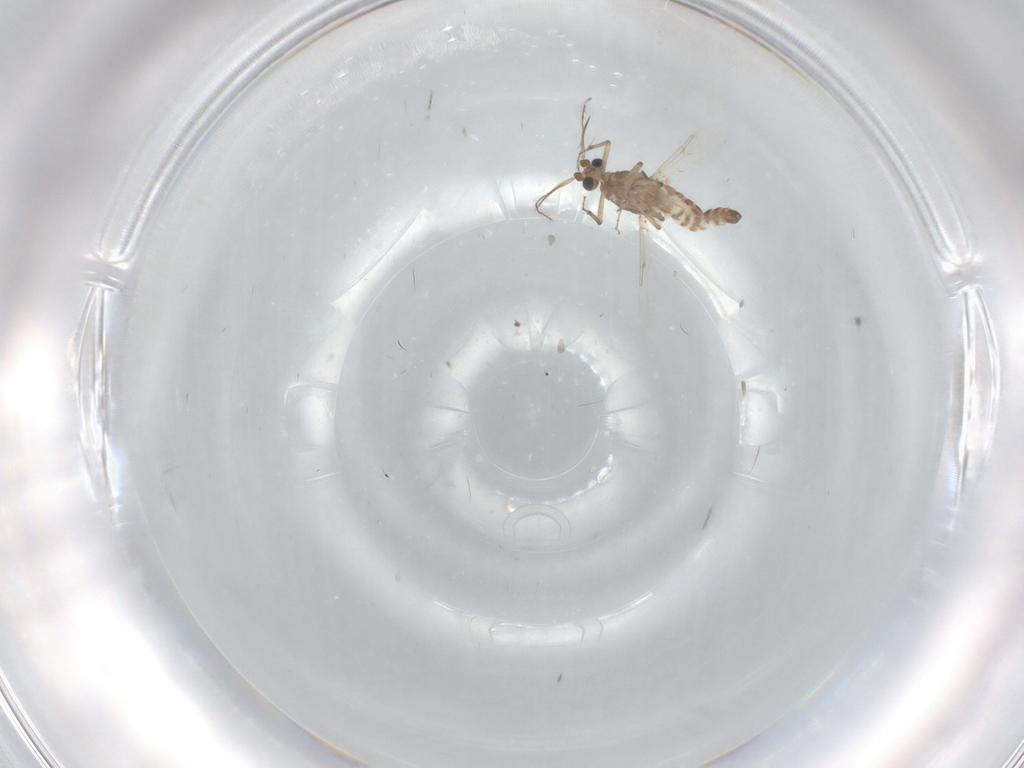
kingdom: Animalia
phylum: Arthropoda
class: Insecta
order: Diptera
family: Ceratopogonidae
